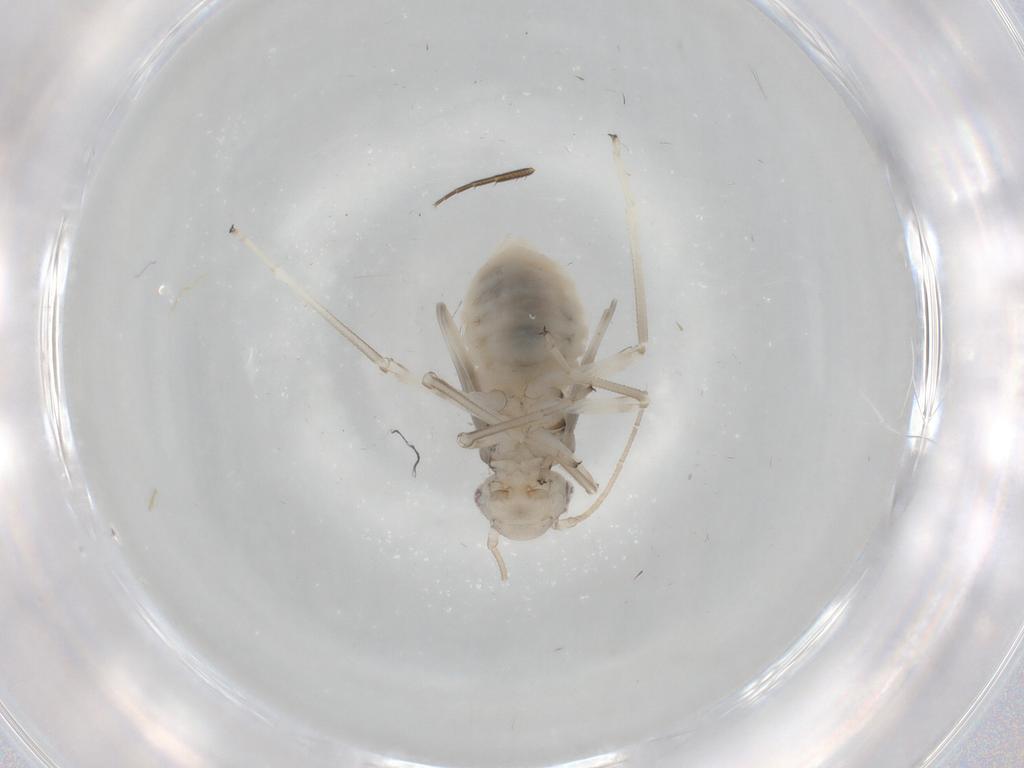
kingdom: Animalia
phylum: Arthropoda
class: Insecta
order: Psocodea
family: Amphipsocidae
